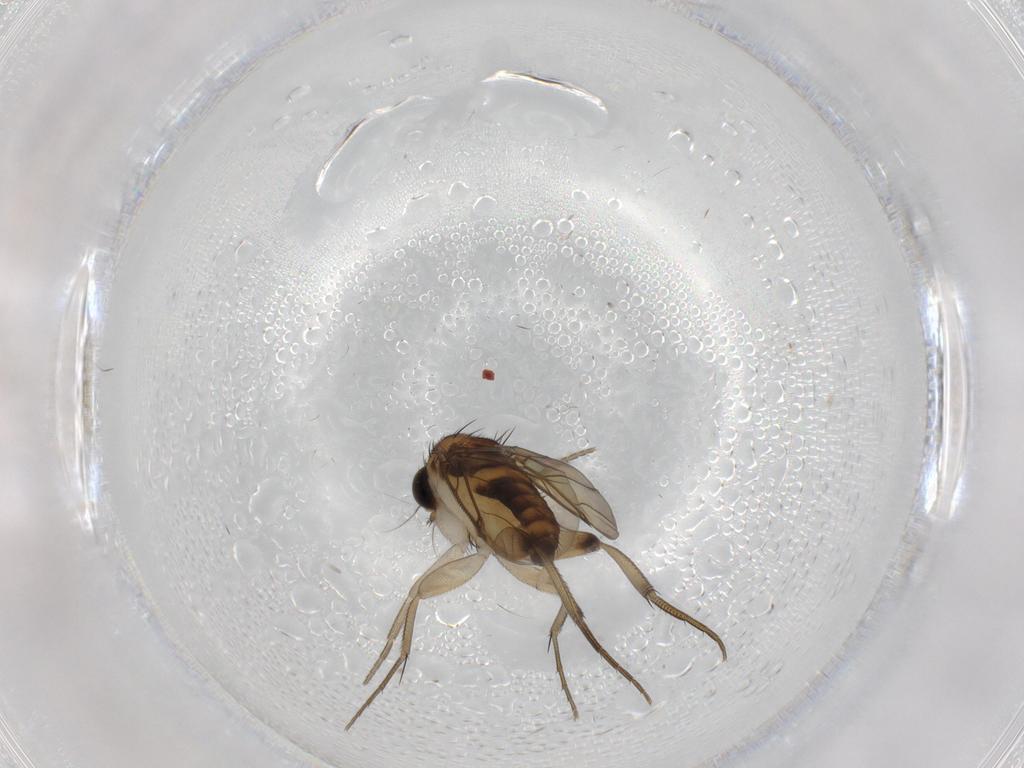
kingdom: Animalia
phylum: Arthropoda
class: Insecta
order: Diptera
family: Phoridae
